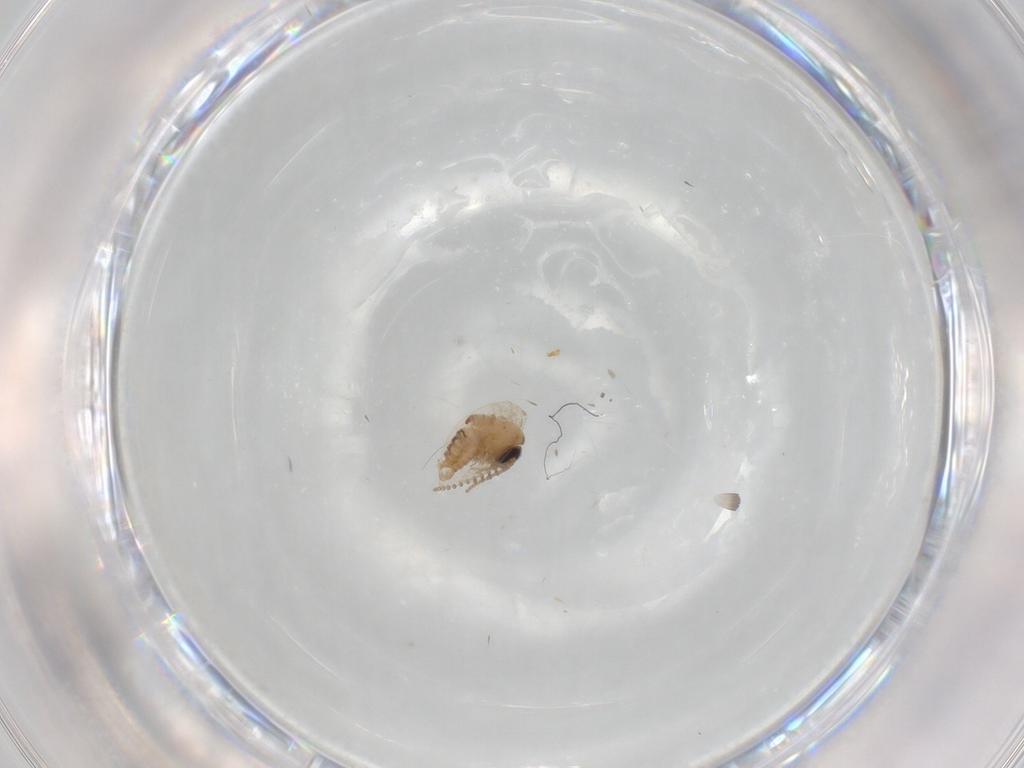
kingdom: Animalia
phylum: Arthropoda
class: Insecta
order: Diptera
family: Psychodidae
